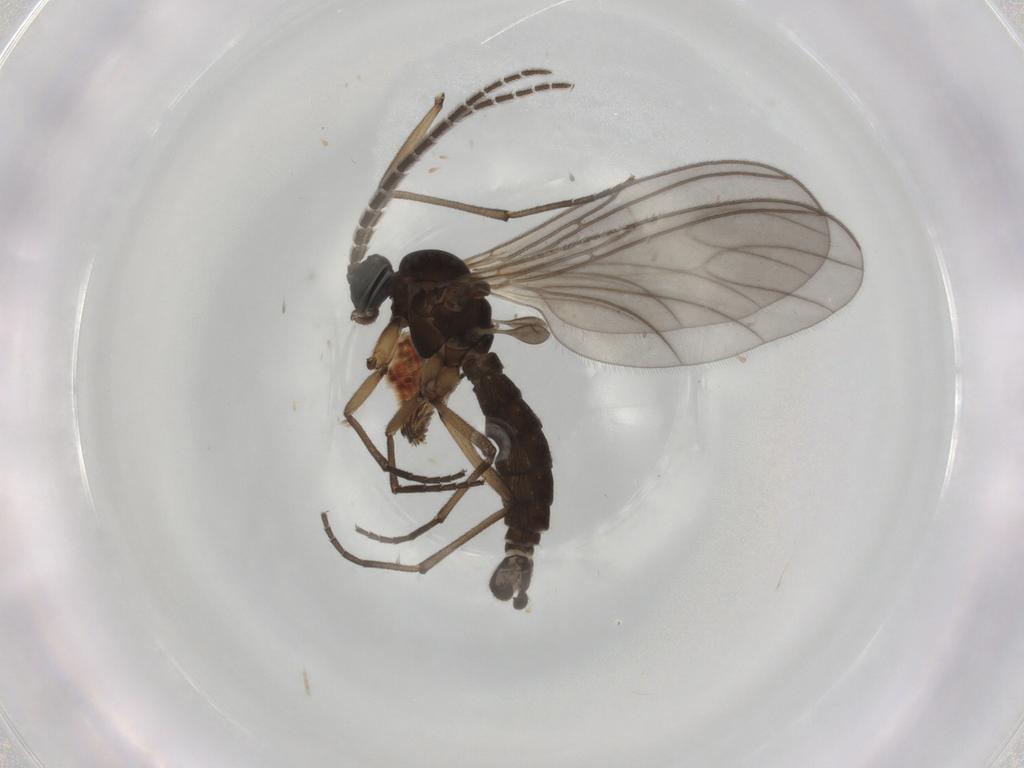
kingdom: Animalia
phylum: Arthropoda
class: Insecta
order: Diptera
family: Sciaridae
